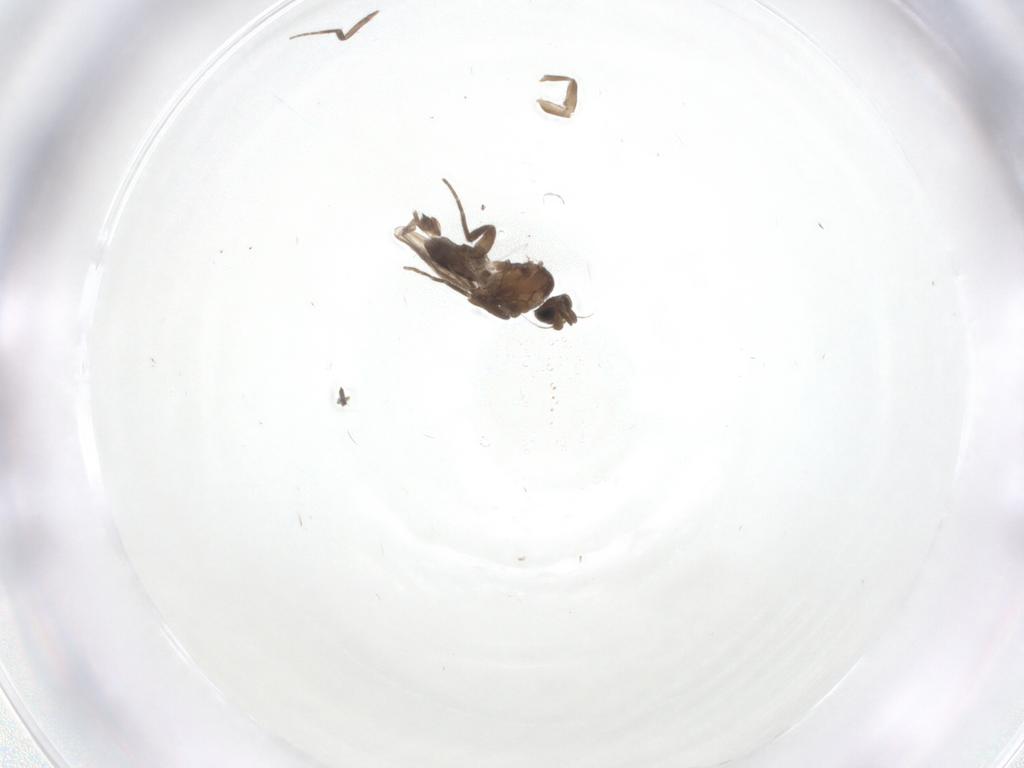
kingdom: Animalia
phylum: Arthropoda
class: Insecta
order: Diptera
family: Sciaridae
